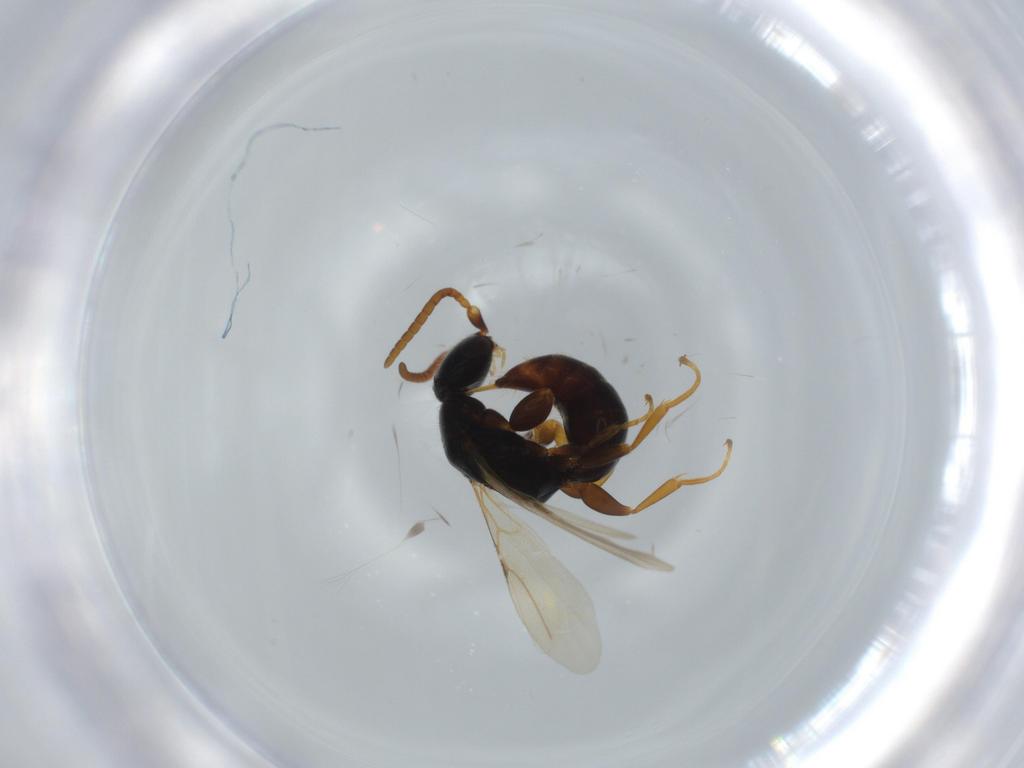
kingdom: Animalia
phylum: Arthropoda
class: Insecta
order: Hymenoptera
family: Bethylidae
